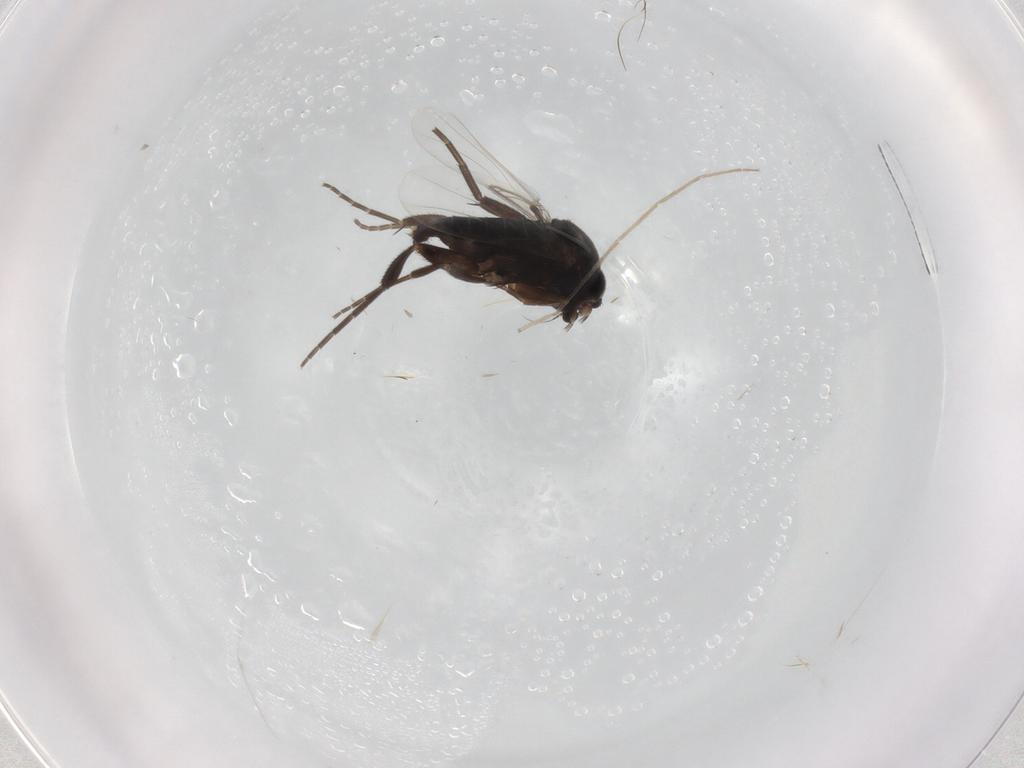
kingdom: Animalia
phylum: Arthropoda
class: Insecta
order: Diptera
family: Phoridae
